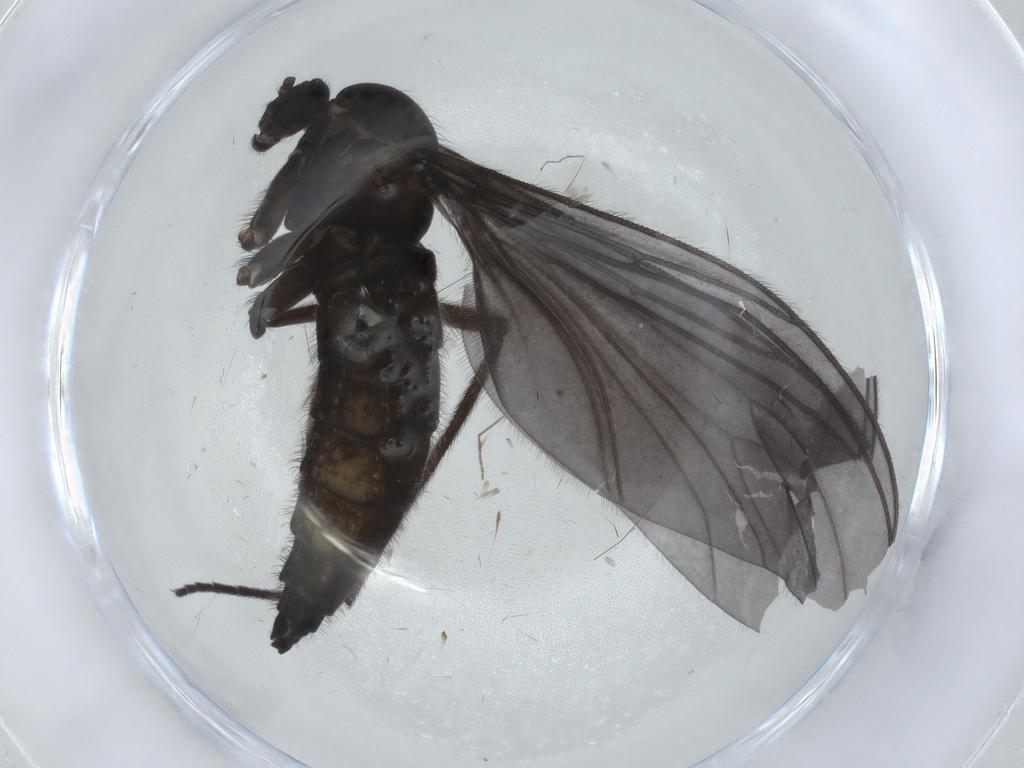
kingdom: Animalia
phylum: Arthropoda
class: Insecta
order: Diptera
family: Sciaridae
